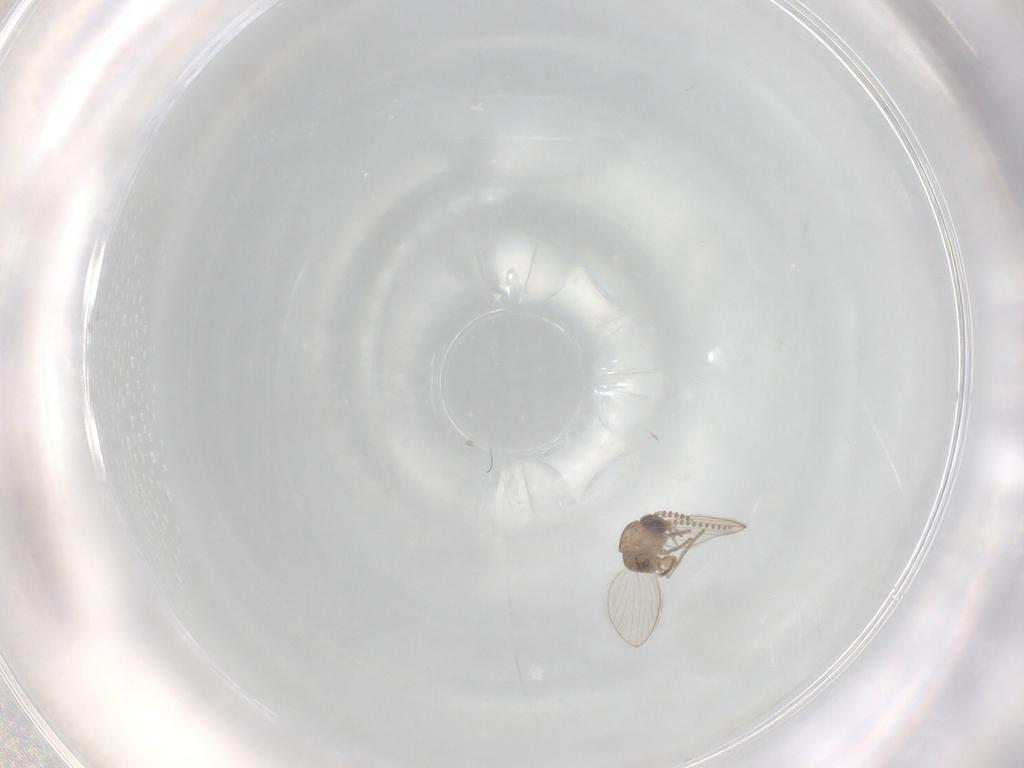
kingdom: Animalia
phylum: Arthropoda
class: Insecta
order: Diptera
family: Psychodidae
